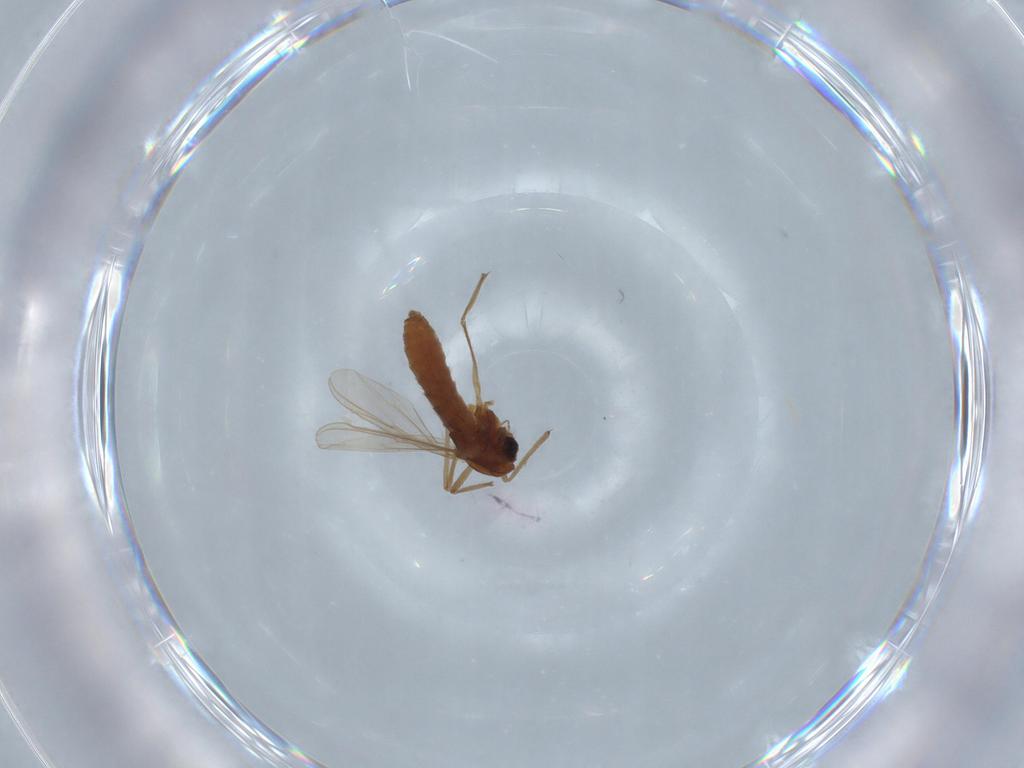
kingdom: Animalia
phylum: Arthropoda
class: Insecta
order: Diptera
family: Chironomidae
